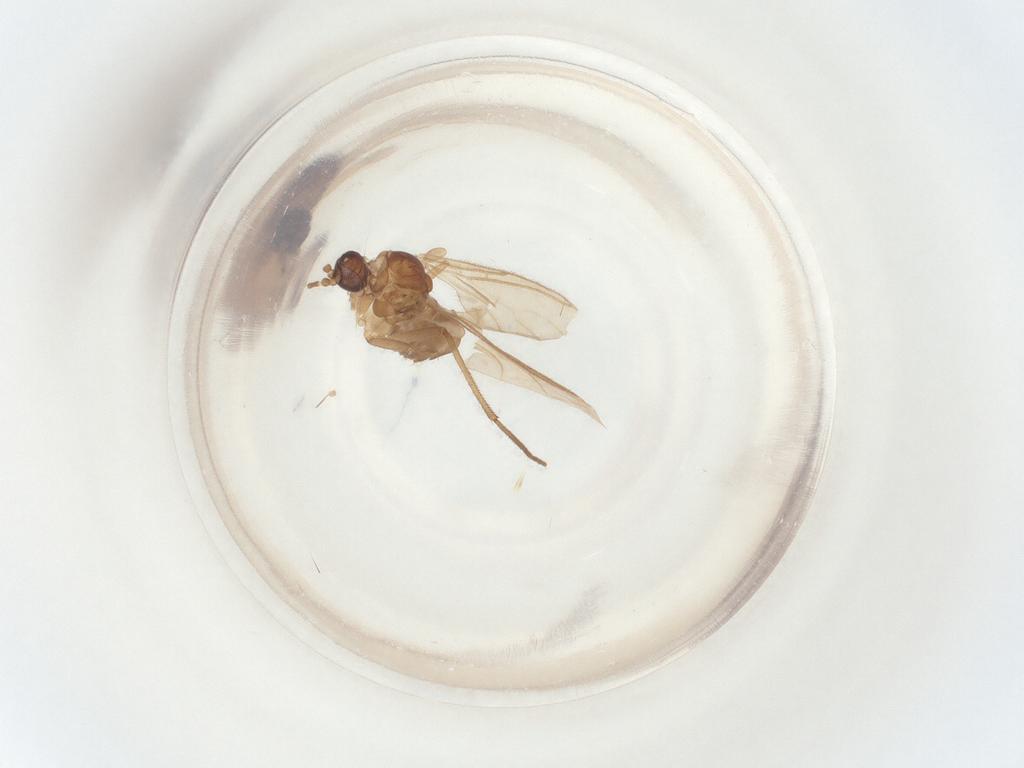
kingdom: Animalia
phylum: Arthropoda
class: Insecta
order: Diptera
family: Sciaridae
